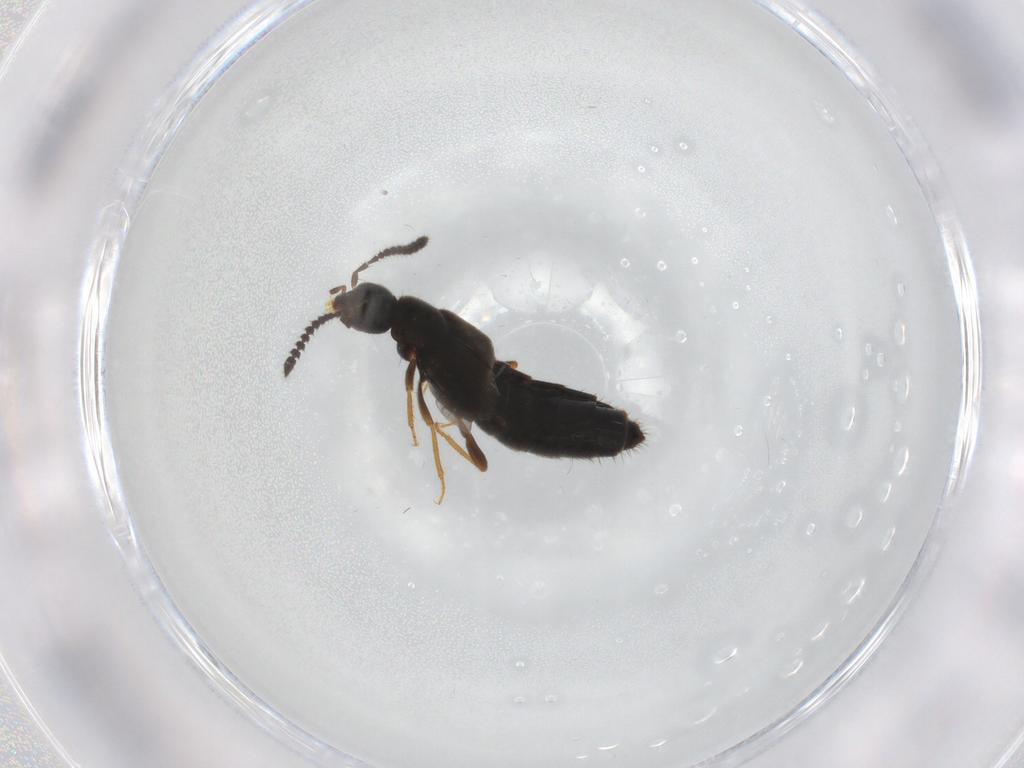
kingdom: Animalia
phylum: Arthropoda
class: Insecta
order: Coleoptera
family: Staphylinidae
